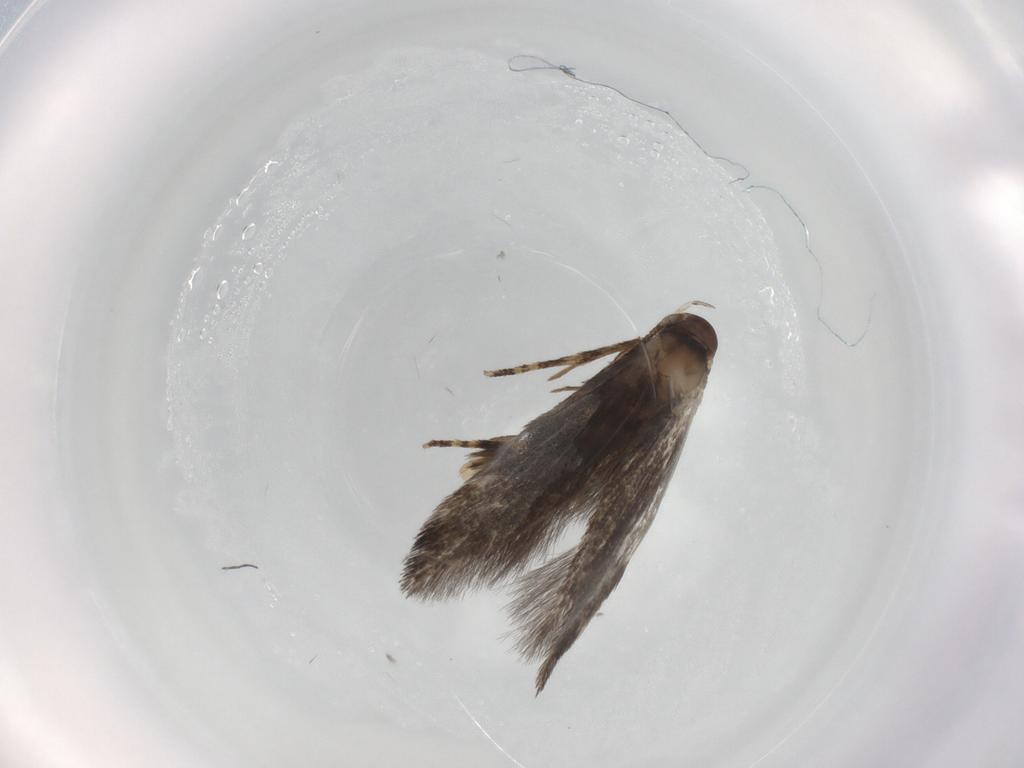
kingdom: Animalia
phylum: Arthropoda
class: Insecta
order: Lepidoptera
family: Elachistidae
